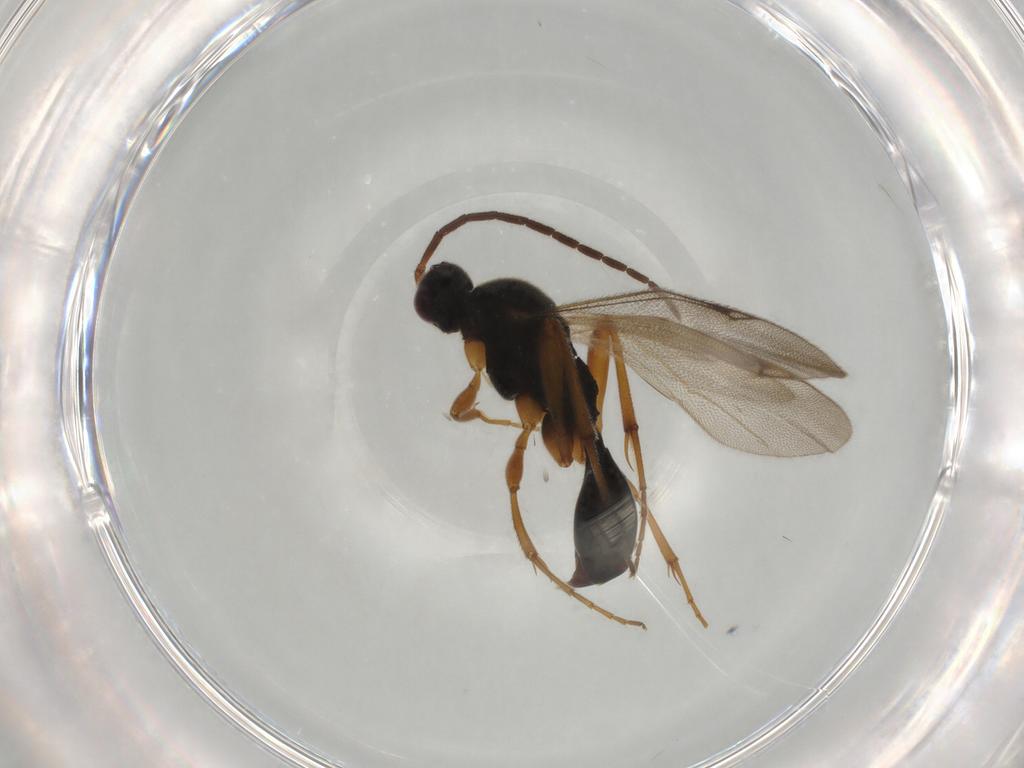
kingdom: Animalia
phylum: Arthropoda
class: Insecta
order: Hymenoptera
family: Proctotrupidae
